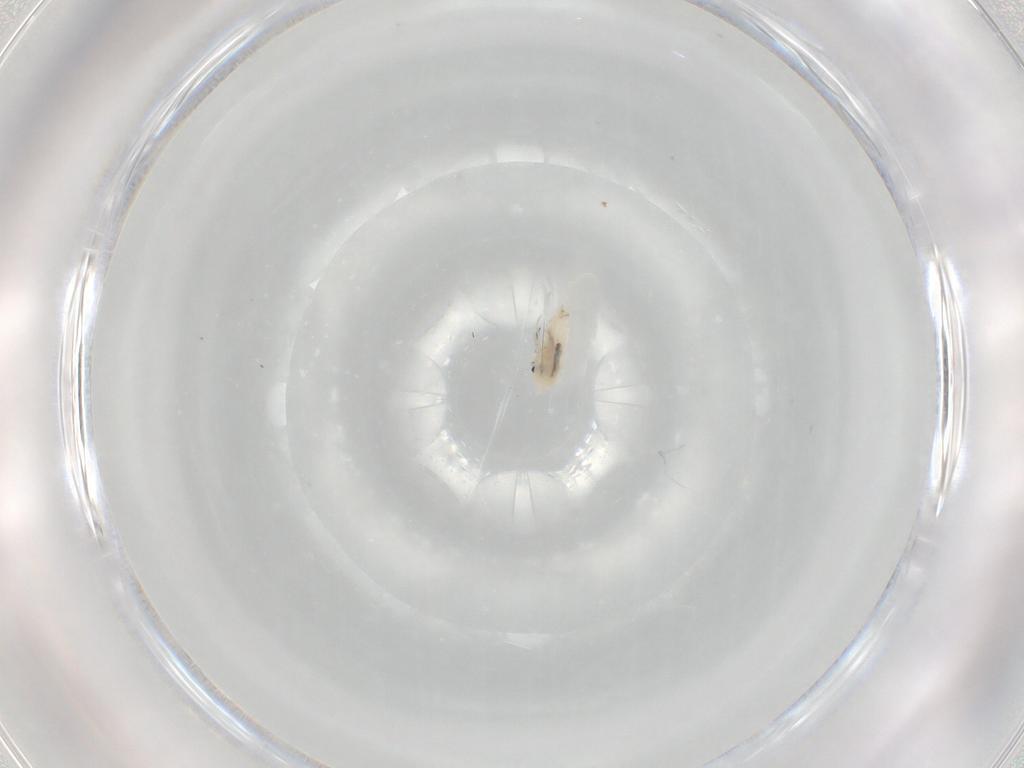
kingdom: Animalia
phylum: Arthropoda
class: Collembola
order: Entomobryomorpha
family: Entomobryidae
